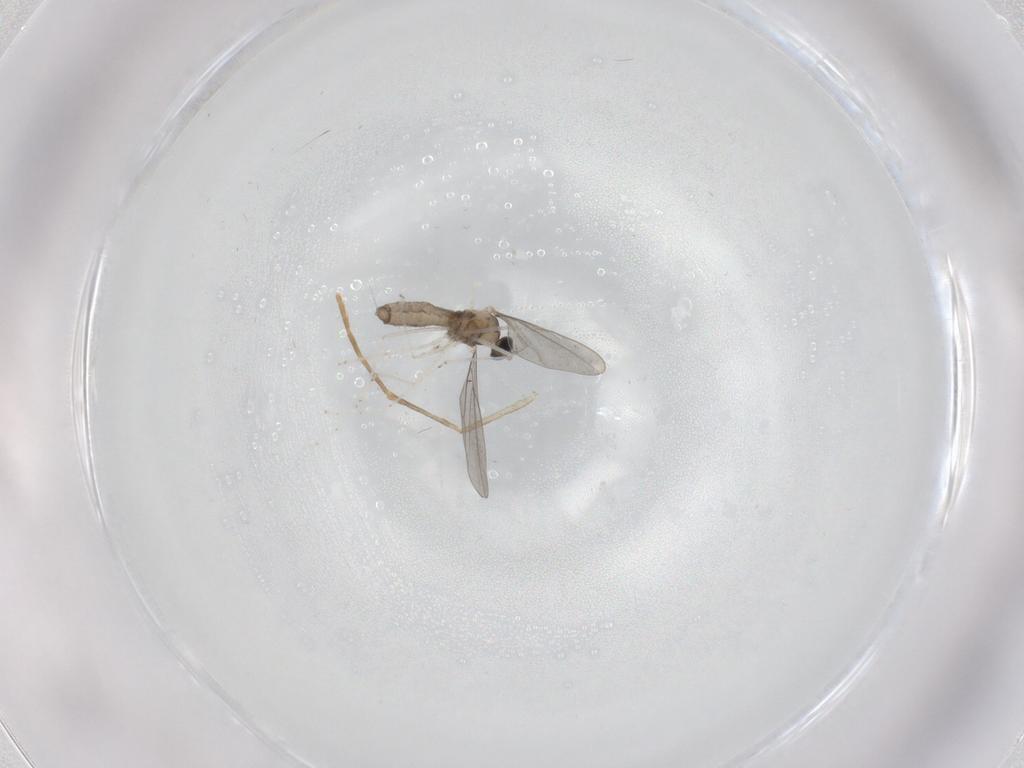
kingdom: Animalia
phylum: Arthropoda
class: Insecta
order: Diptera
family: Cecidomyiidae
